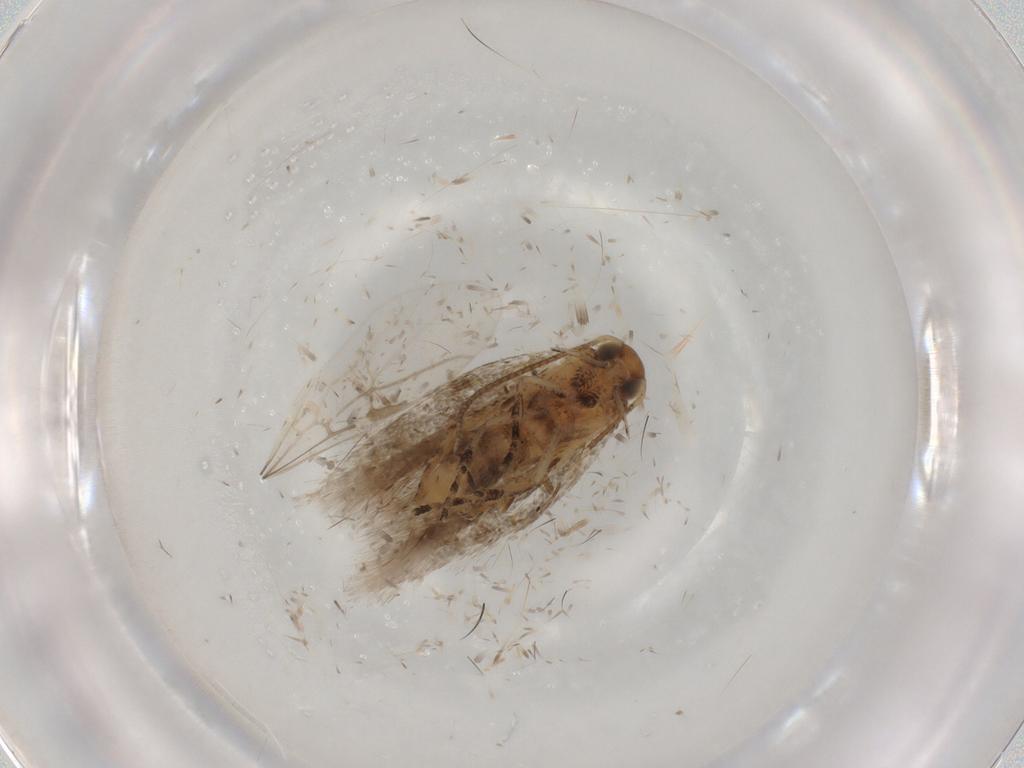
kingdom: Animalia
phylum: Arthropoda
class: Insecta
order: Lepidoptera
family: Gelechiidae
